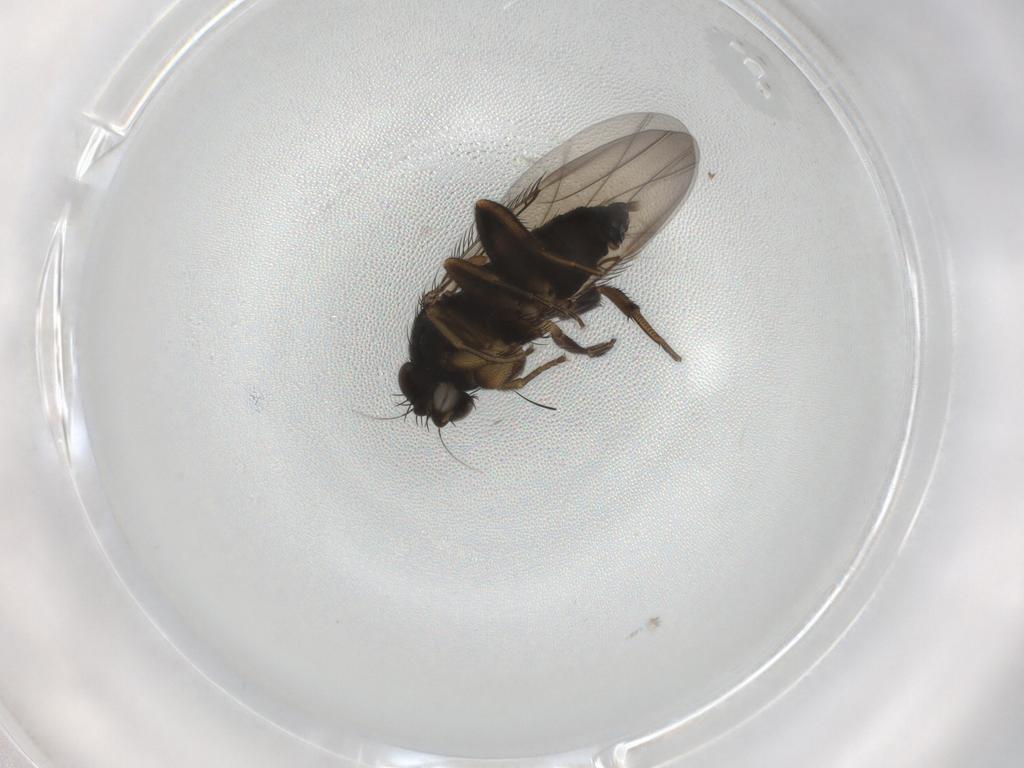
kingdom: Animalia
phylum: Arthropoda
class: Insecta
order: Diptera
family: Phoridae
